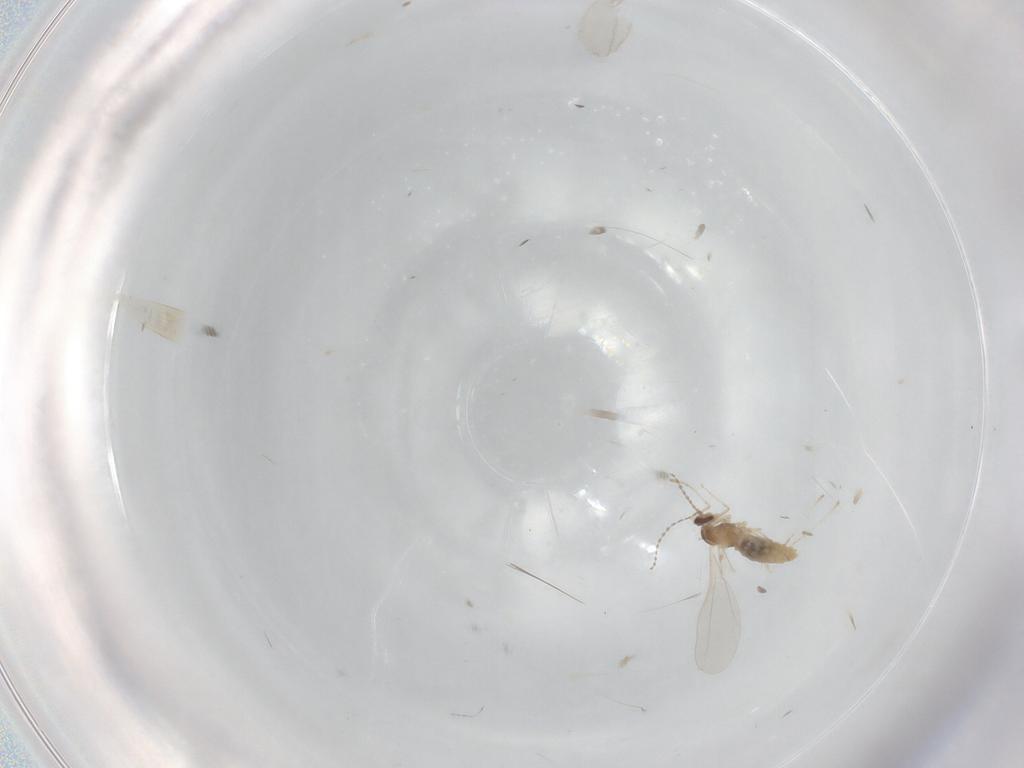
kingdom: Animalia
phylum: Arthropoda
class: Insecta
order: Diptera
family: Cecidomyiidae
